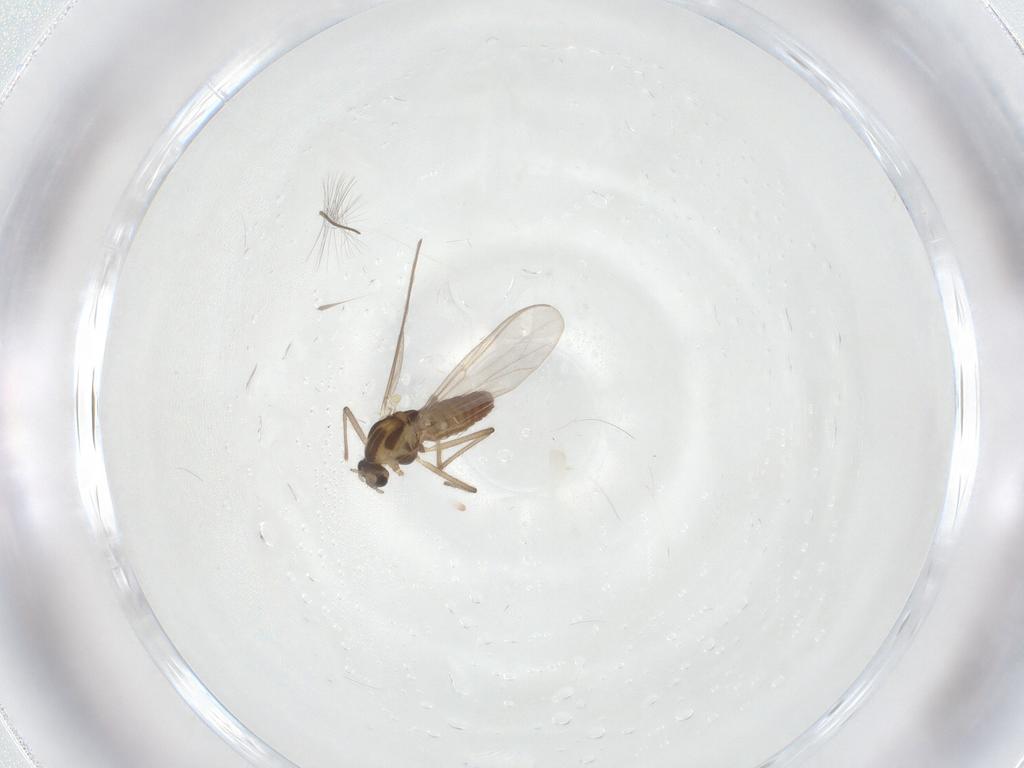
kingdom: Animalia
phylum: Arthropoda
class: Insecta
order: Diptera
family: Chironomidae
